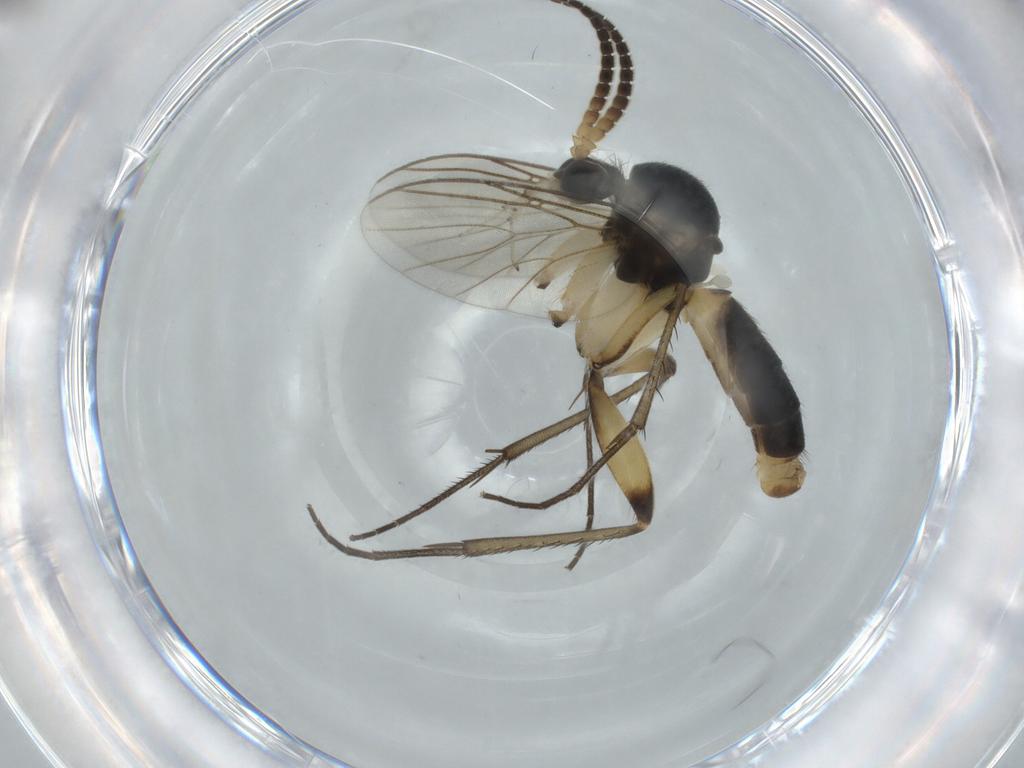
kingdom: Animalia
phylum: Arthropoda
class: Insecta
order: Diptera
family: Mycetophilidae
